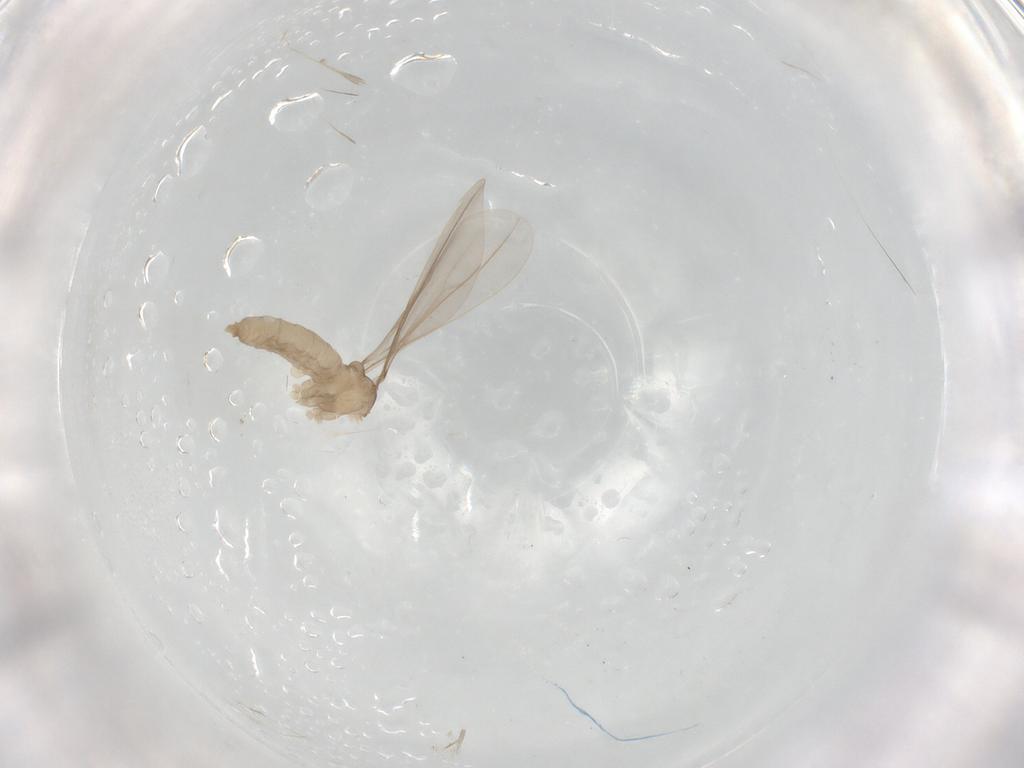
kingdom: Animalia
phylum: Arthropoda
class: Insecta
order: Diptera
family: Cecidomyiidae
